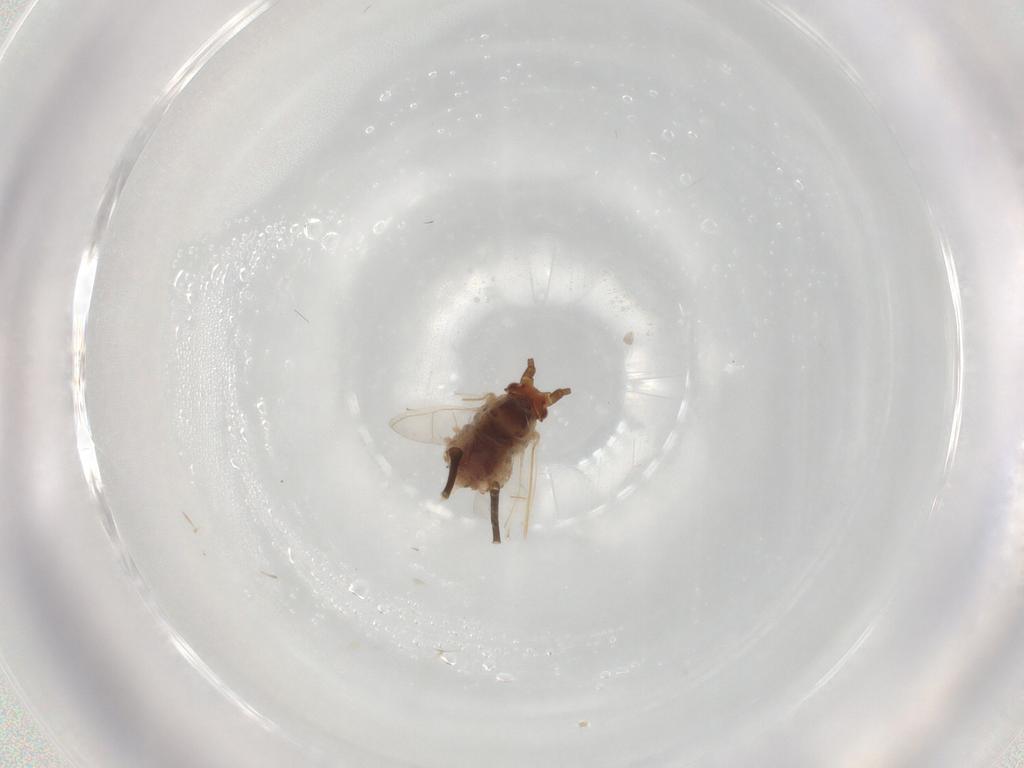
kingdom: Animalia
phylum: Arthropoda
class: Insecta
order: Hemiptera
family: Aphididae
